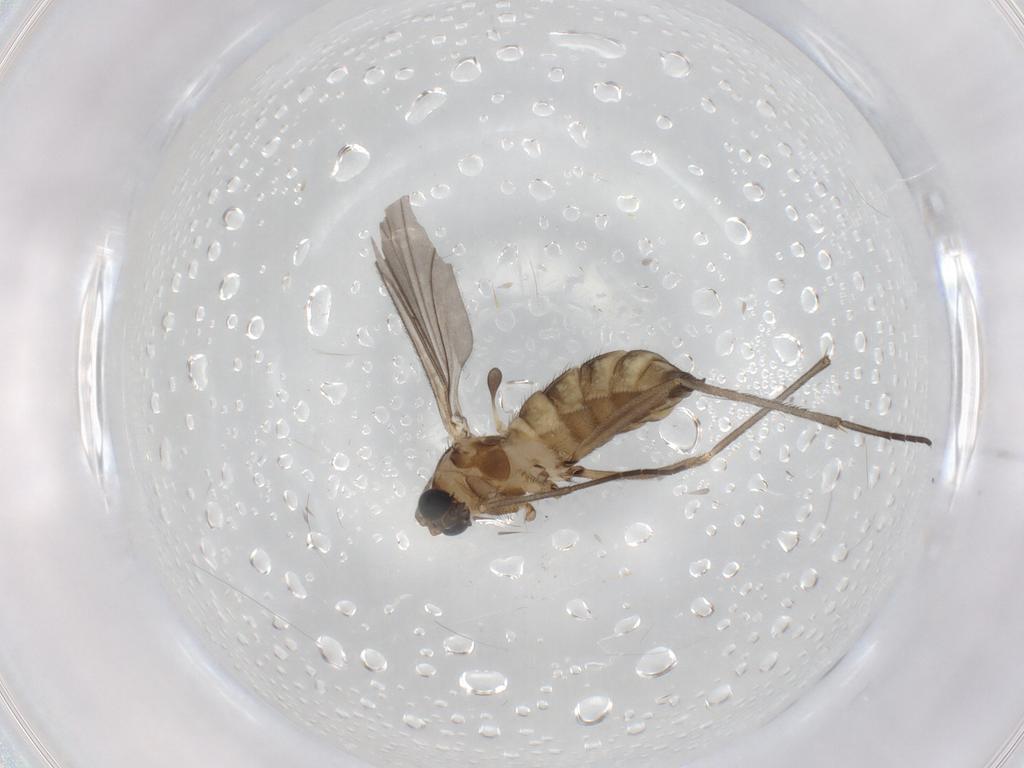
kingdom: Animalia
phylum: Arthropoda
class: Insecta
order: Diptera
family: Sciaridae
